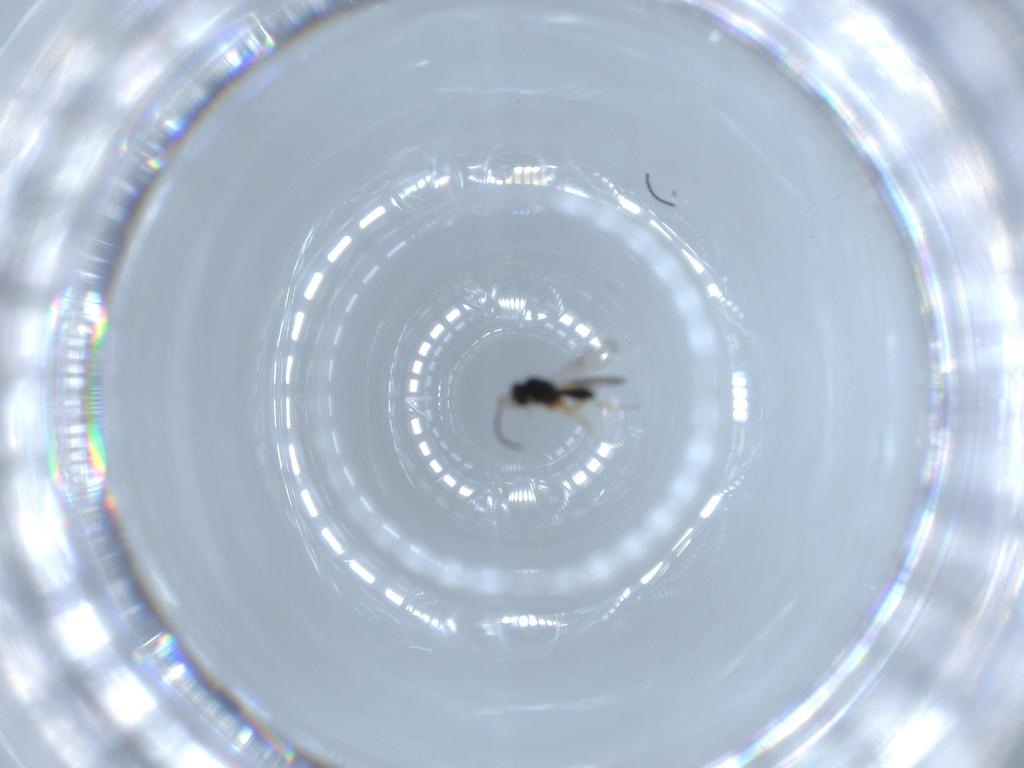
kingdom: Animalia
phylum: Arthropoda
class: Insecta
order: Hymenoptera
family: Scelionidae
